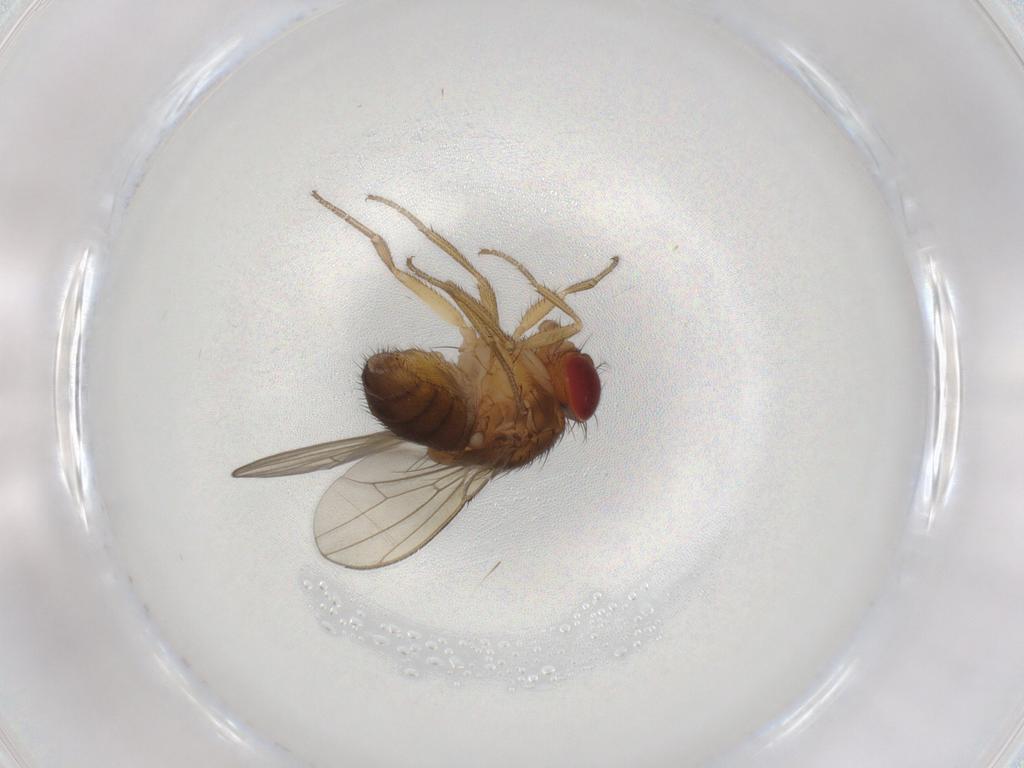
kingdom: Animalia
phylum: Arthropoda
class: Insecta
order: Diptera
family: Drosophilidae
